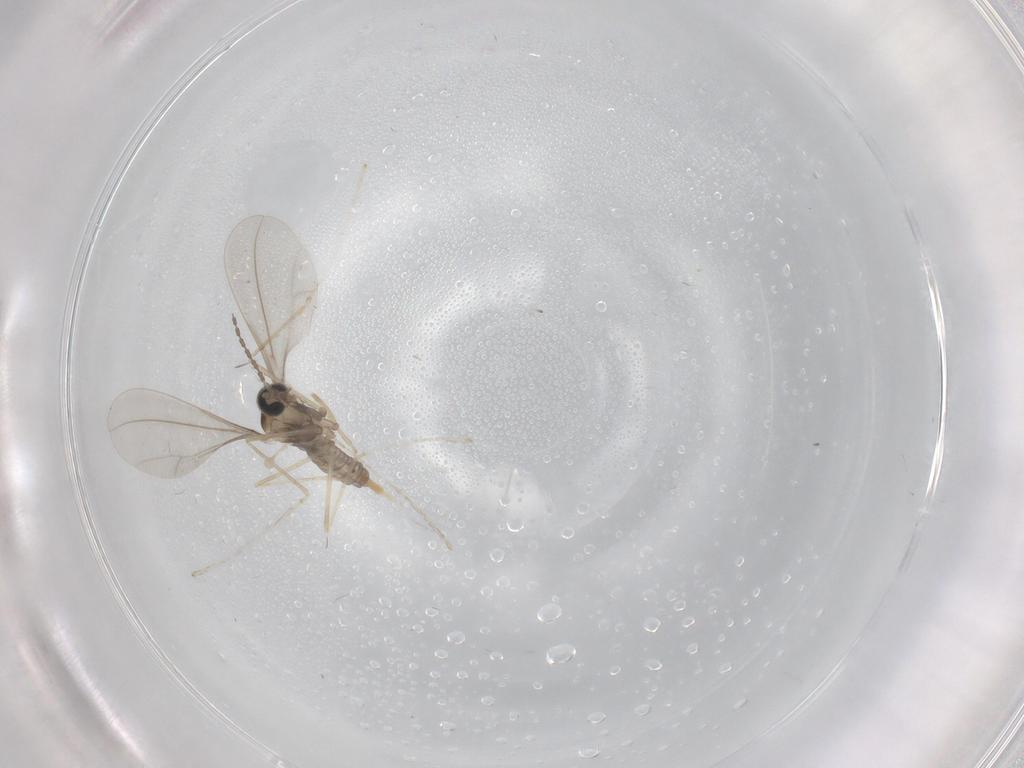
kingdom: Animalia
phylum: Arthropoda
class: Insecta
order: Diptera
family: Cecidomyiidae
